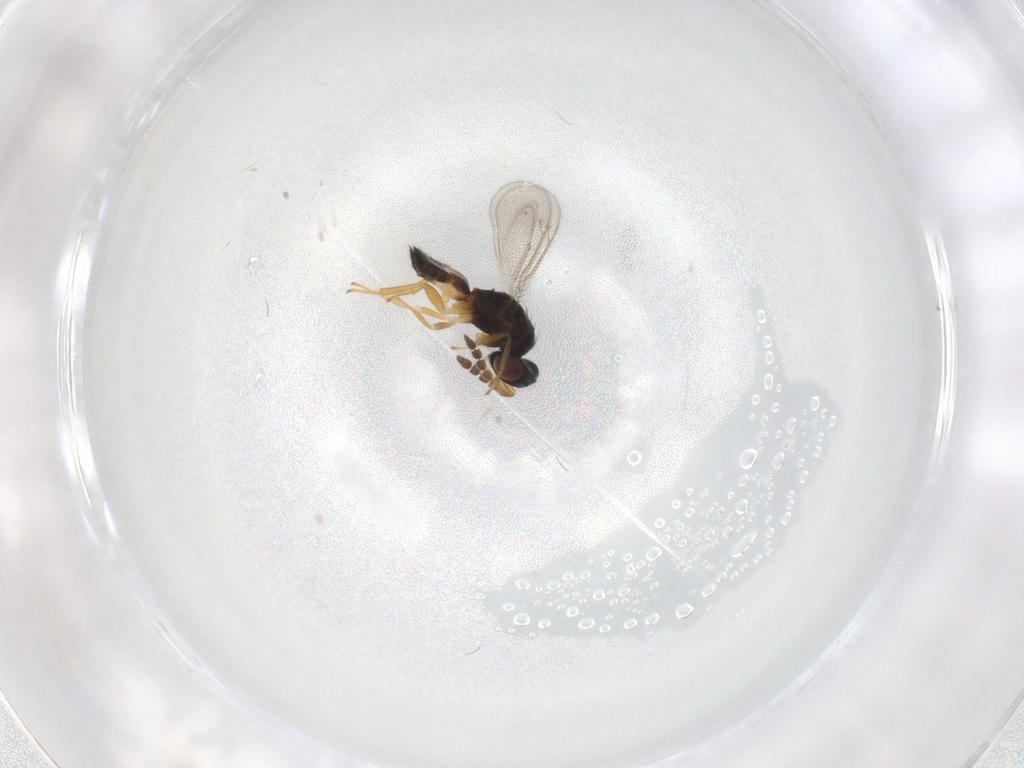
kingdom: Animalia
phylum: Arthropoda
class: Insecta
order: Hymenoptera
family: Eulophidae
